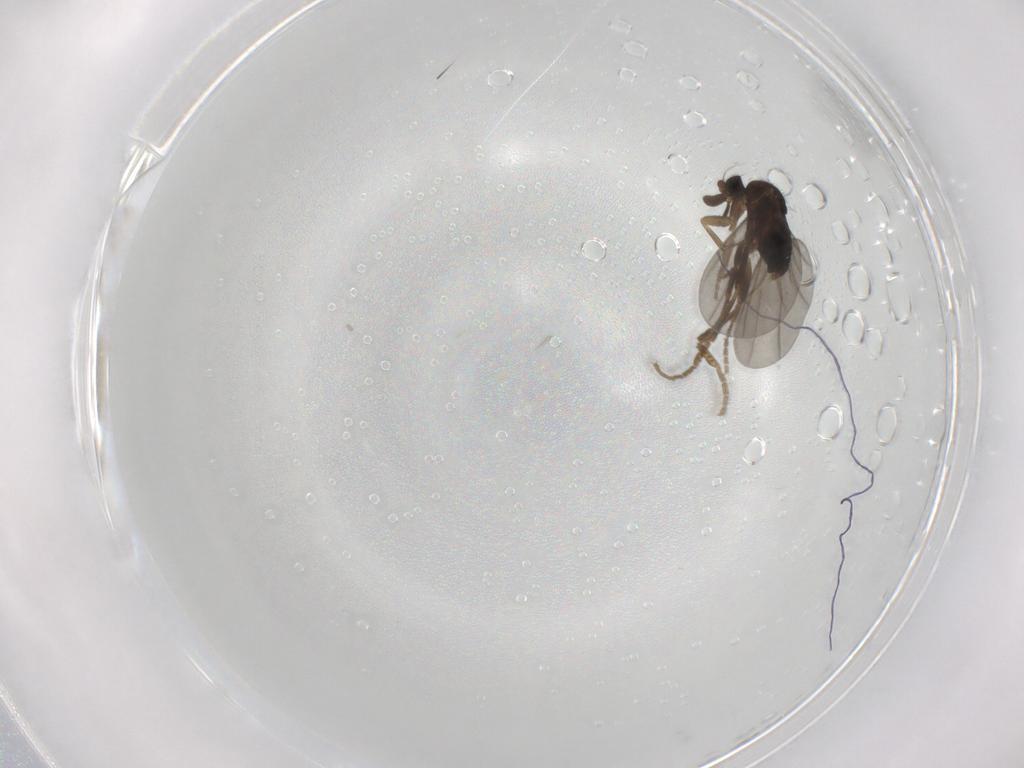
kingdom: Animalia
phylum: Arthropoda
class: Insecta
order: Diptera
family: Chironomidae
